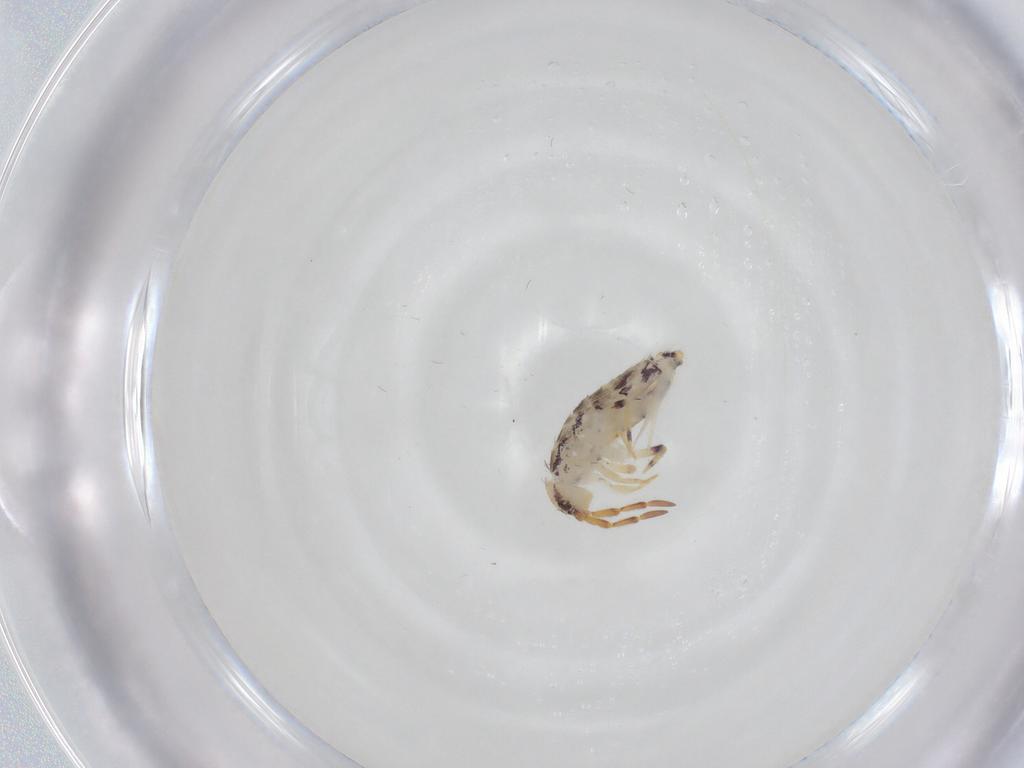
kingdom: Animalia
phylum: Arthropoda
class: Collembola
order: Entomobryomorpha
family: Isotomidae
